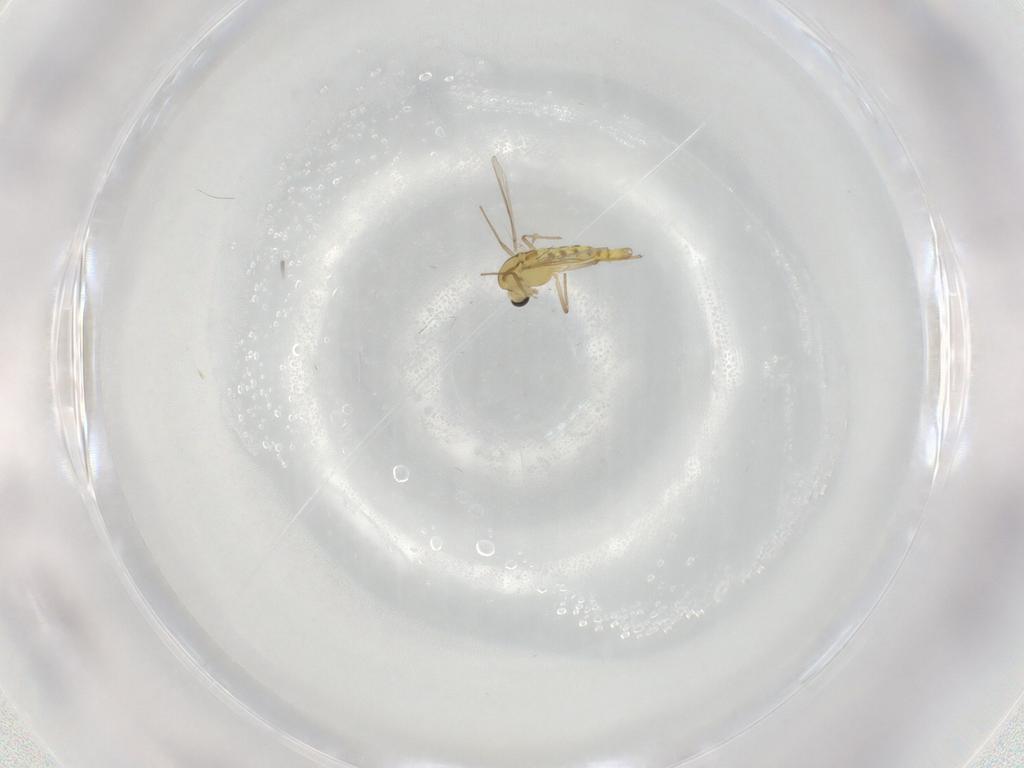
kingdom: Animalia
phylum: Arthropoda
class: Insecta
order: Diptera
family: Chironomidae
